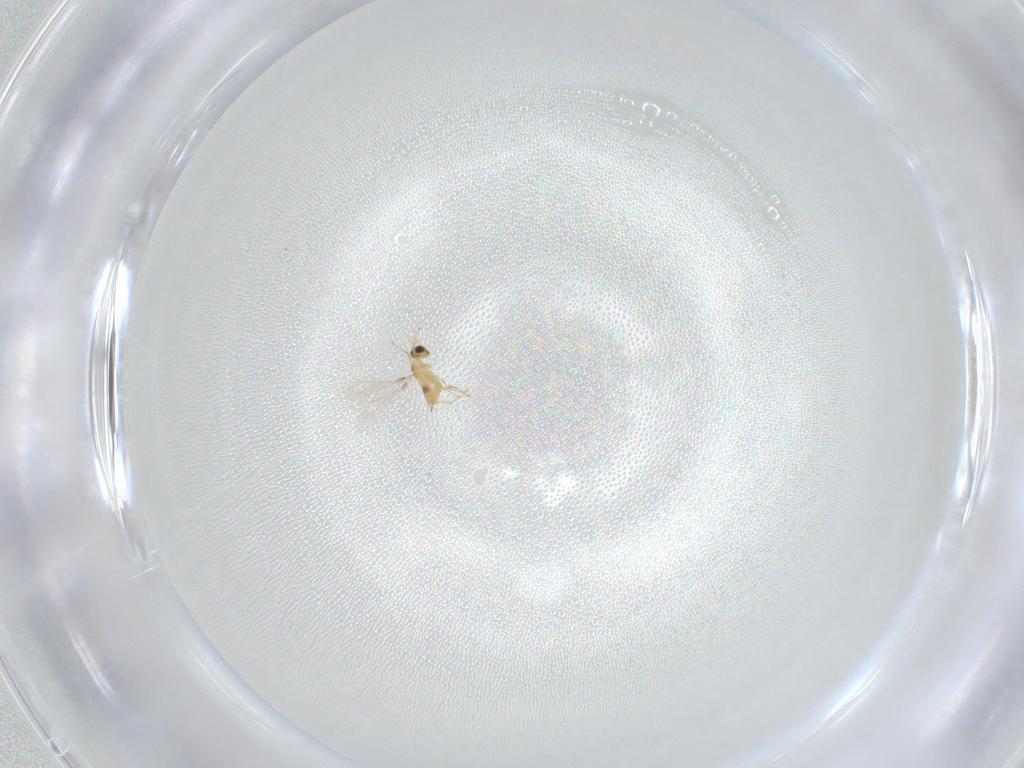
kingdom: Animalia
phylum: Arthropoda
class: Insecta
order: Hymenoptera
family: Mymaridae
